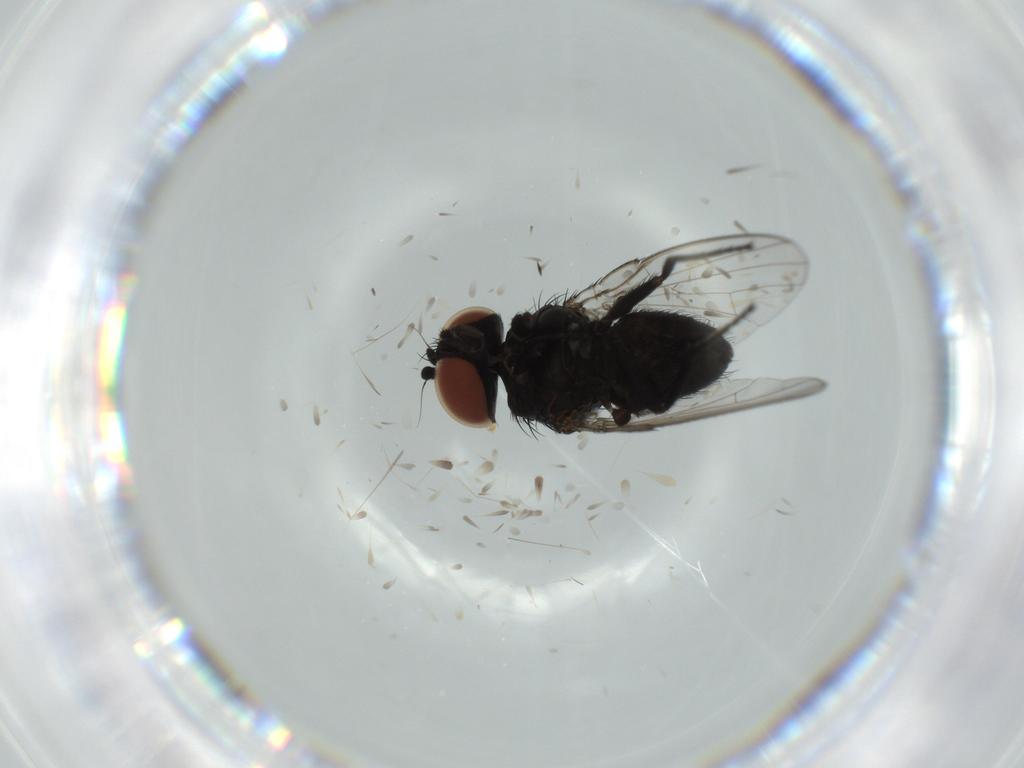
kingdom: Animalia
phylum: Arthropoda
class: Insecta
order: Diptera
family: Milichiidae
